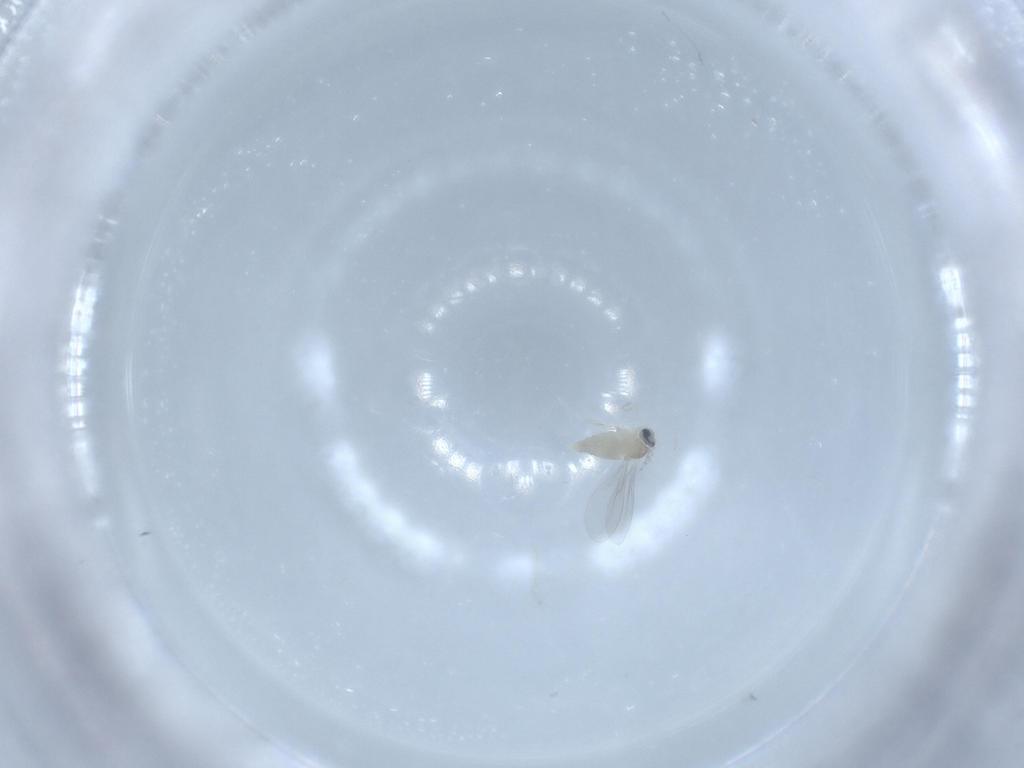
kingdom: Animalia
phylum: Arthropoda
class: Insecta
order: Diptera
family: Cecidomyiidae
